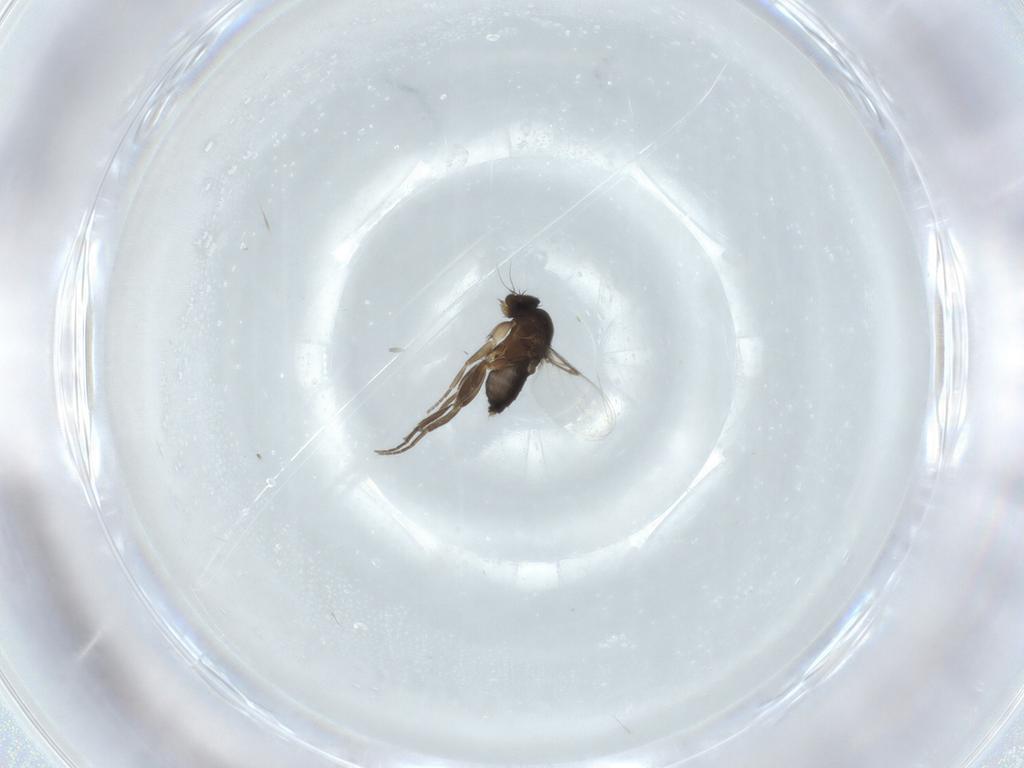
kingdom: Animalia
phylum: Arthropoda
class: Insecta
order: Diptera
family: Phoridae
